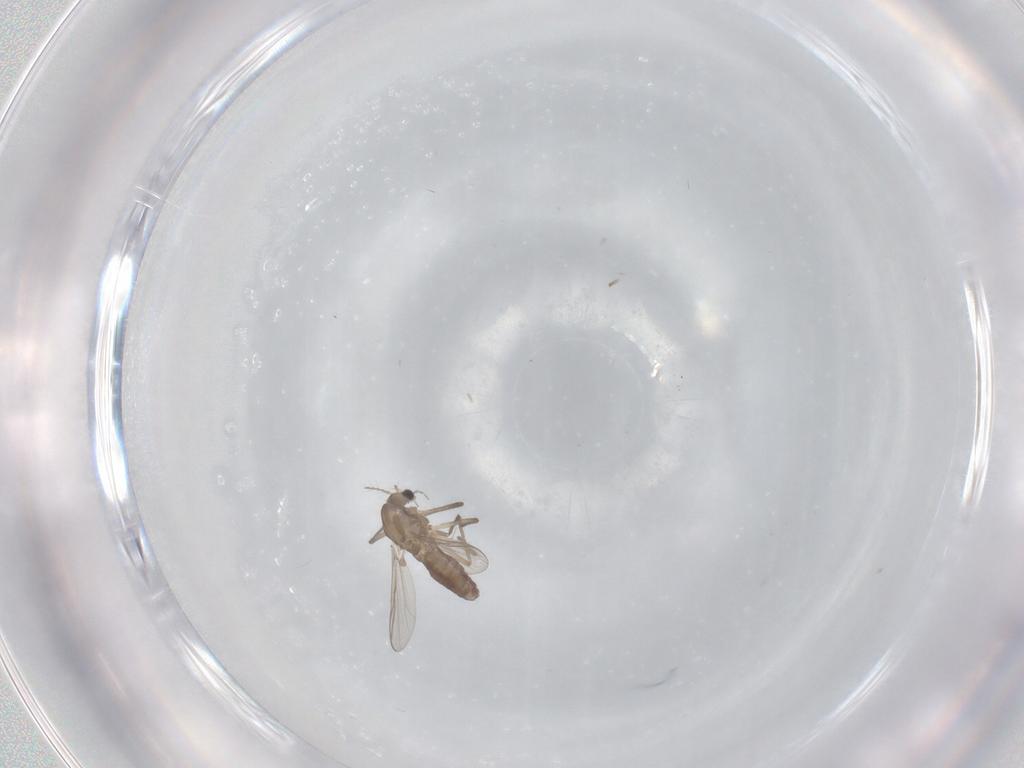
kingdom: Animalia
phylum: Arthropoda
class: Insecta
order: Diptera
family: Chironomidae
